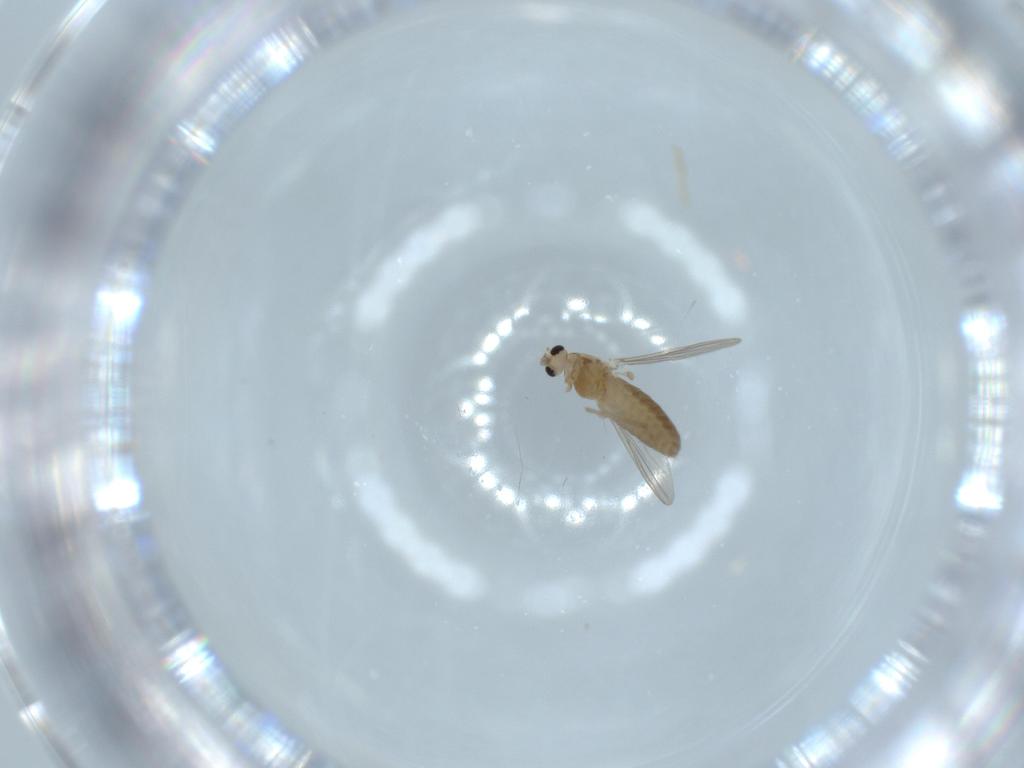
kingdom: Animalia
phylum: Arthropoda
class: Insecta
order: Diptera
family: Chironomidae
